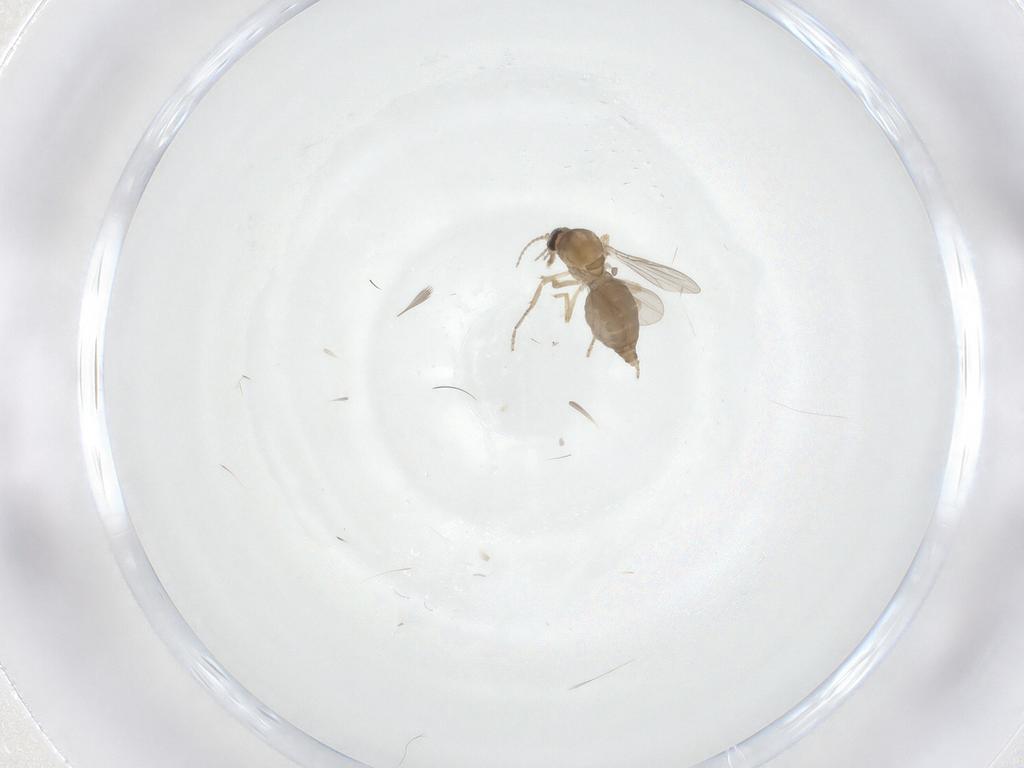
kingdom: Animalia
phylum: Arthropoda
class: Insecta
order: Diptera
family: Ceratopogonidae
